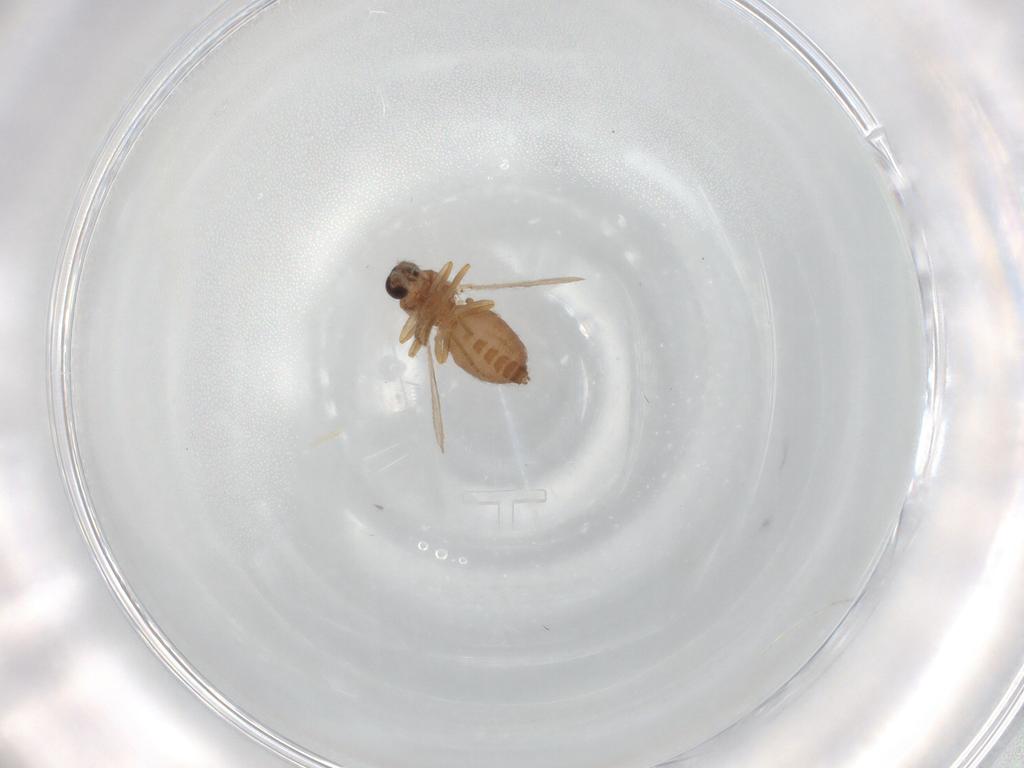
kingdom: Animalia
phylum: Arthropoda
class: Insecta
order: Diptera
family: Ceratopogonidae
